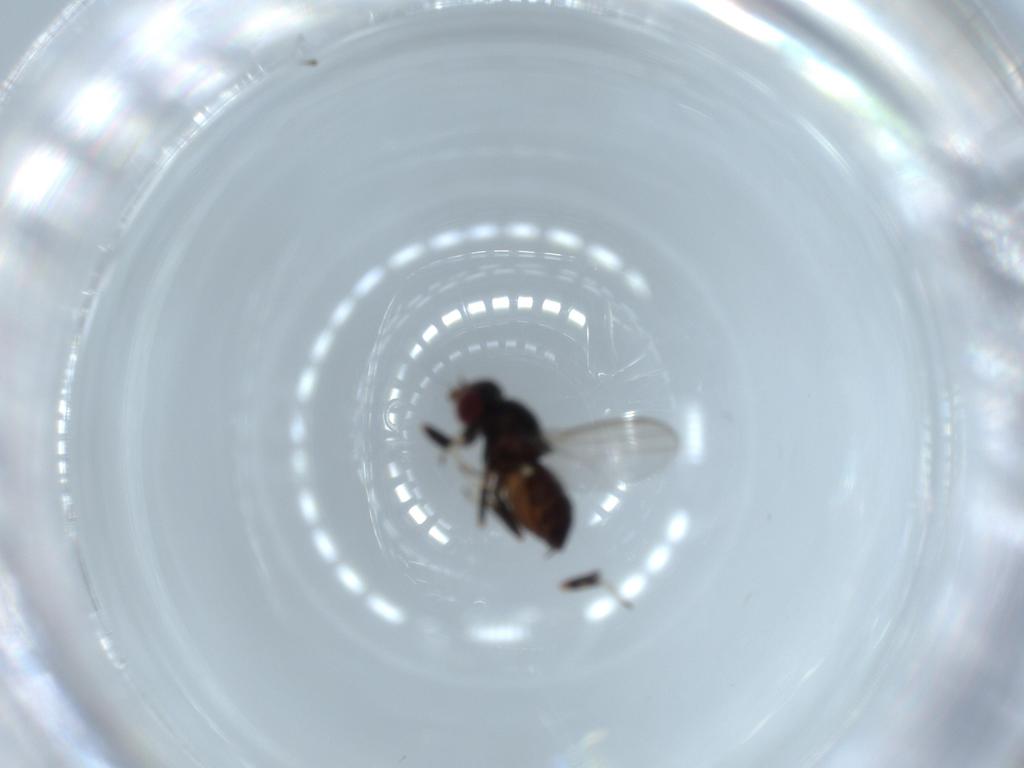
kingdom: Animalia
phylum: Arthropoda
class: Insecta
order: Diptera
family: Chloropidae
